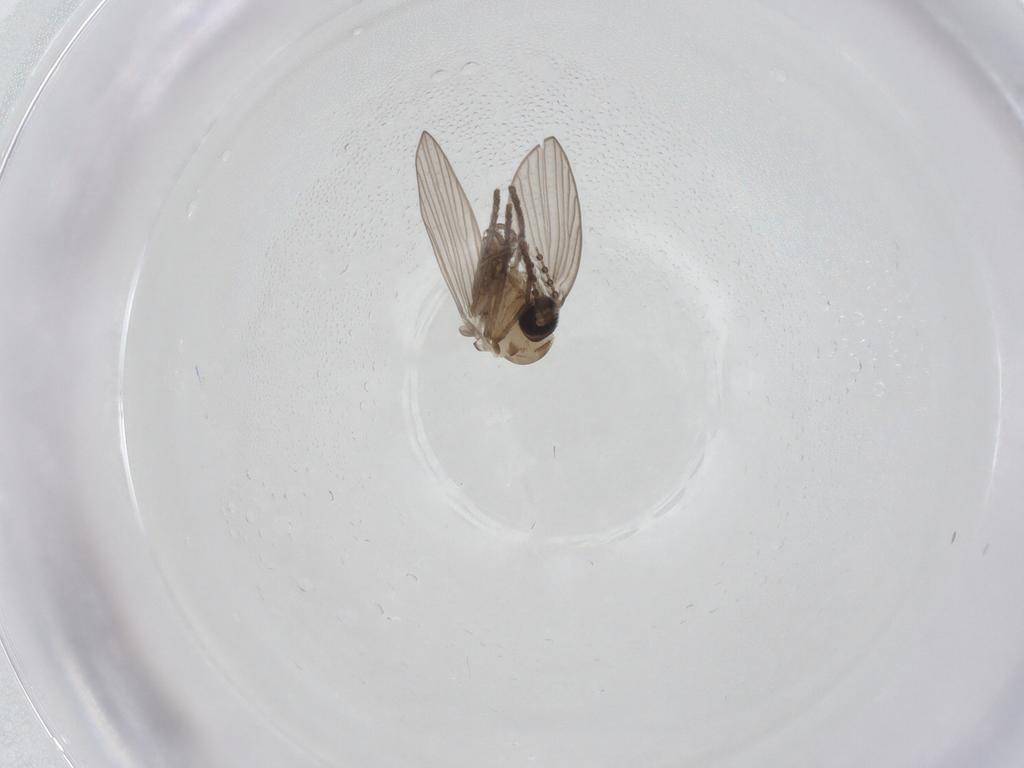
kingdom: Animalia
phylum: Arthropoda
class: Insecta
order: Diptera
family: Psychodidae
